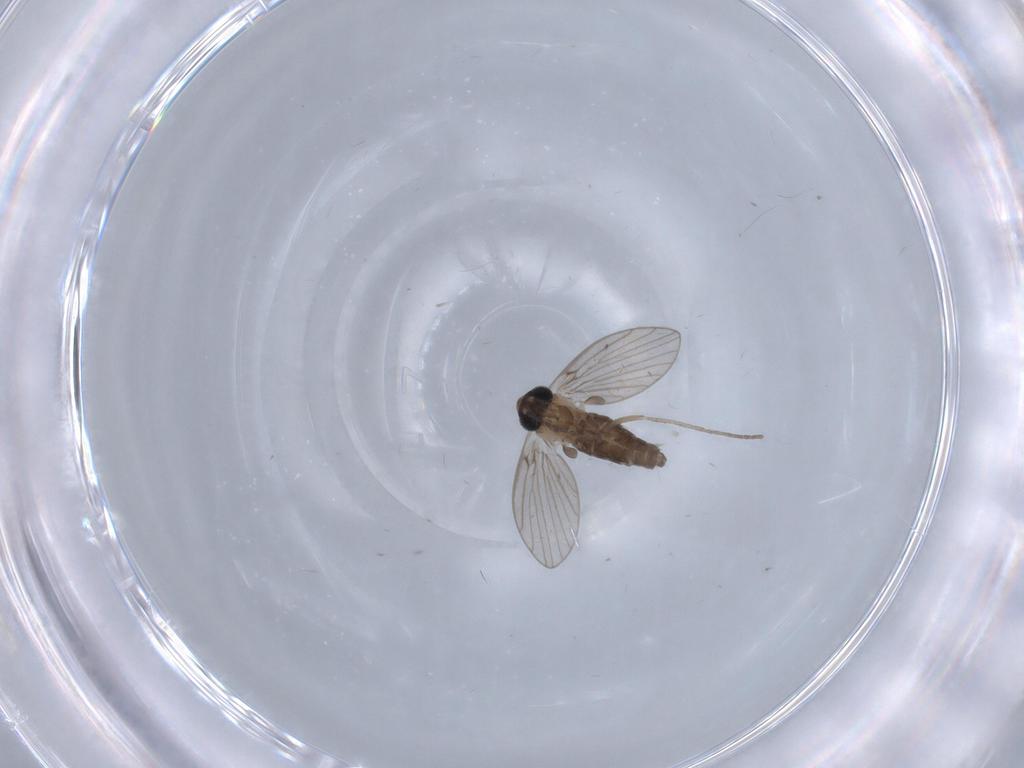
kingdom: Animalia
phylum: Arthropoda
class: Insecta
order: Diptera
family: Phoridae
